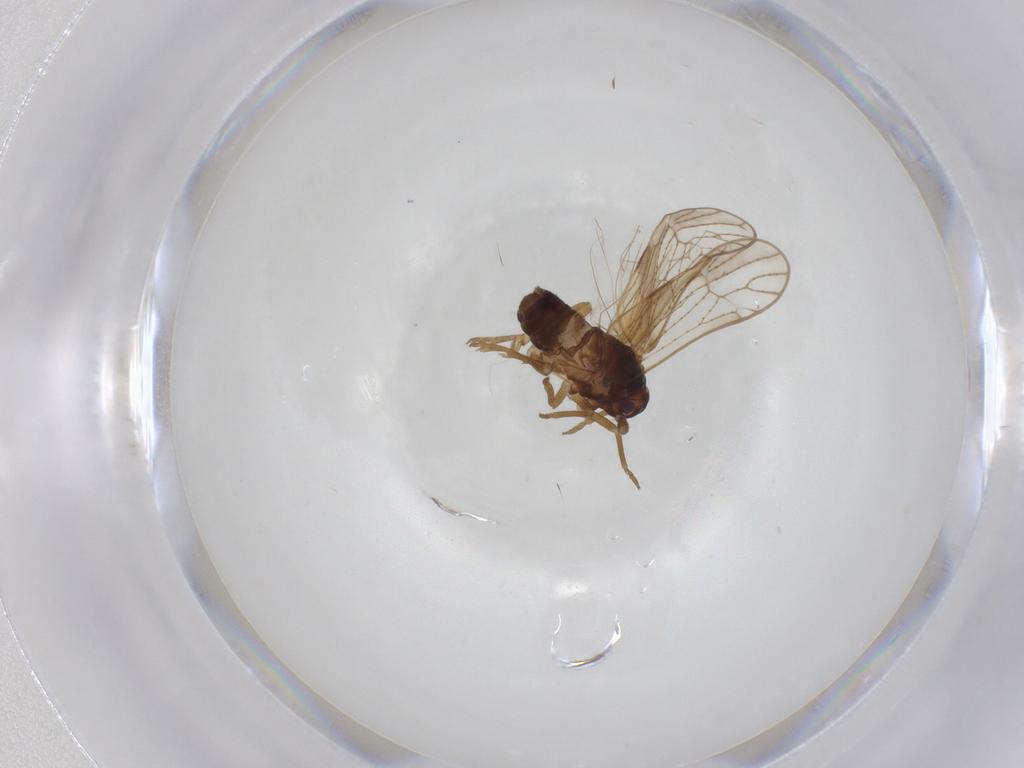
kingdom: Animalia
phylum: Arthropoda
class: Insecta
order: Hemiptera
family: Delphacidae
